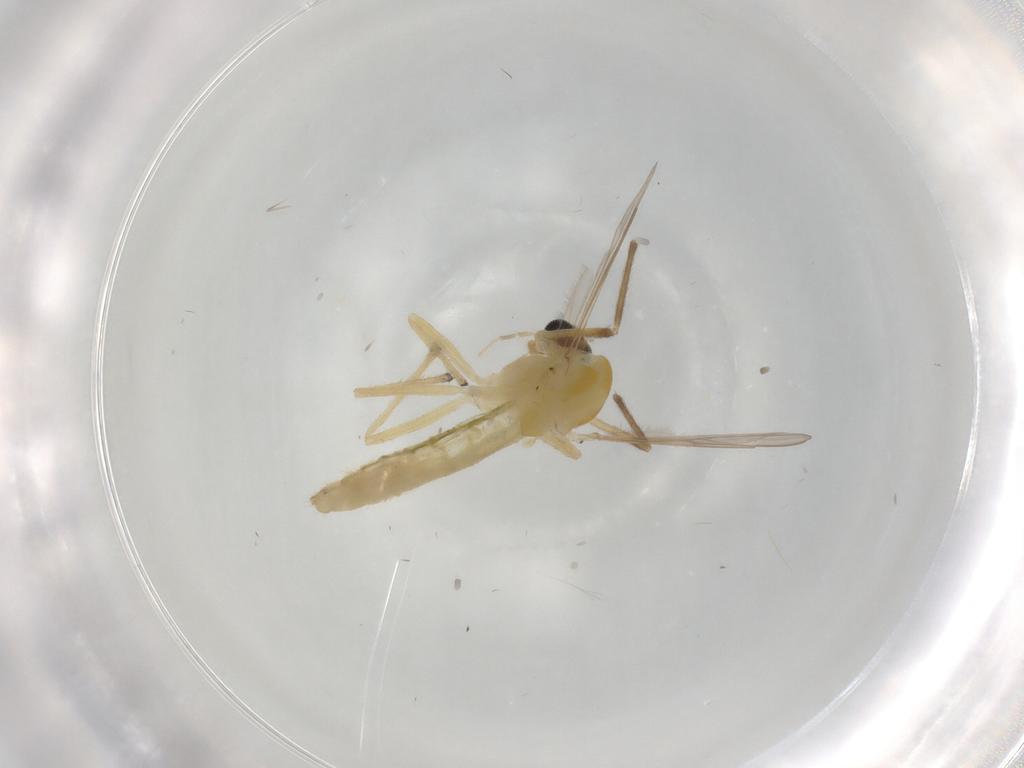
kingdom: Animalia
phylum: Arthropoda
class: Insecta
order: Diptera
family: Chironomidae
